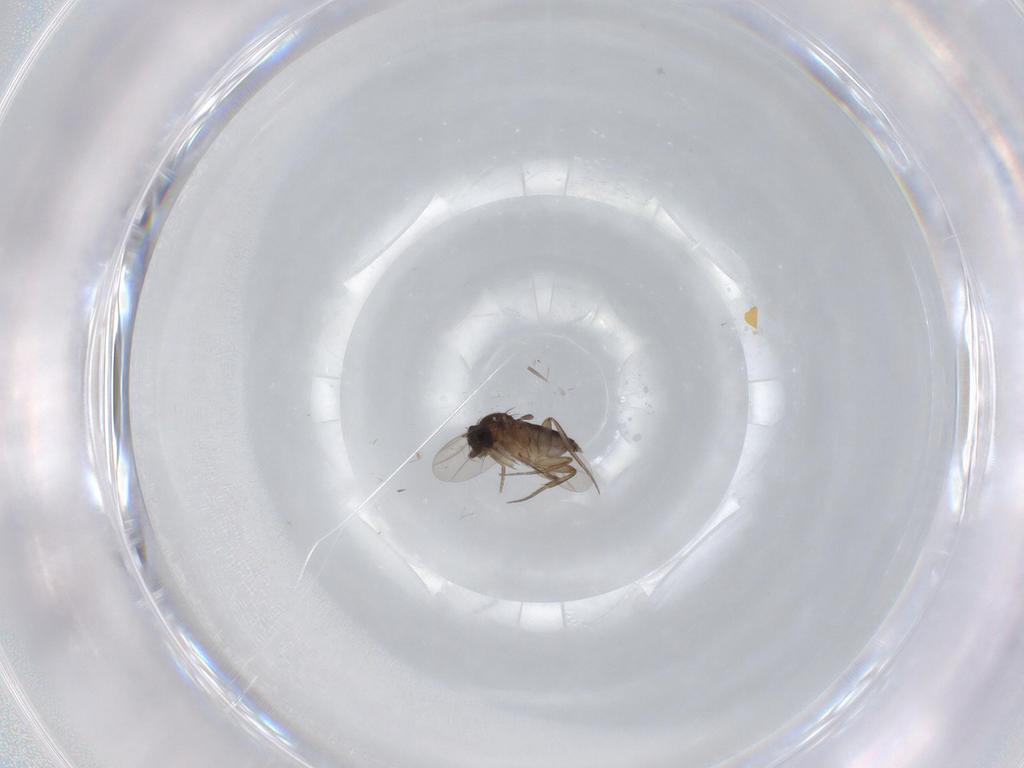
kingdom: Animalia
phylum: Arthropoda
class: Insecta
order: Diptera
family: Phoridae
